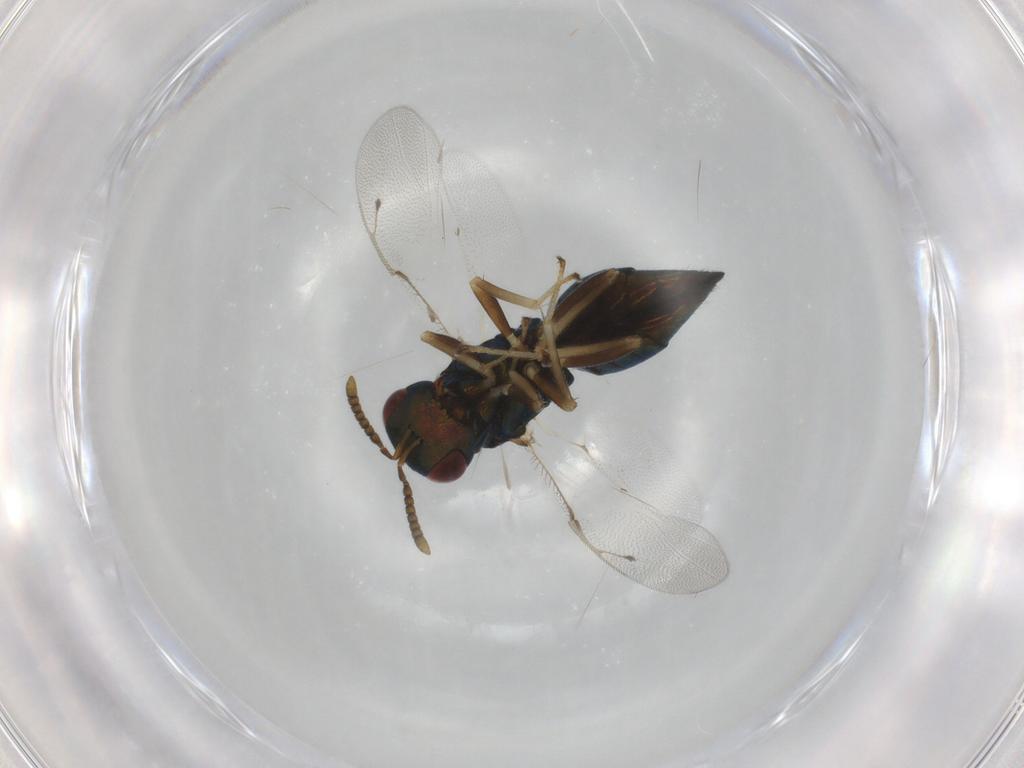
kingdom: Animalia
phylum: Arthropoda
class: Insecta
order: Hymenoptera
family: Pteromalidae
